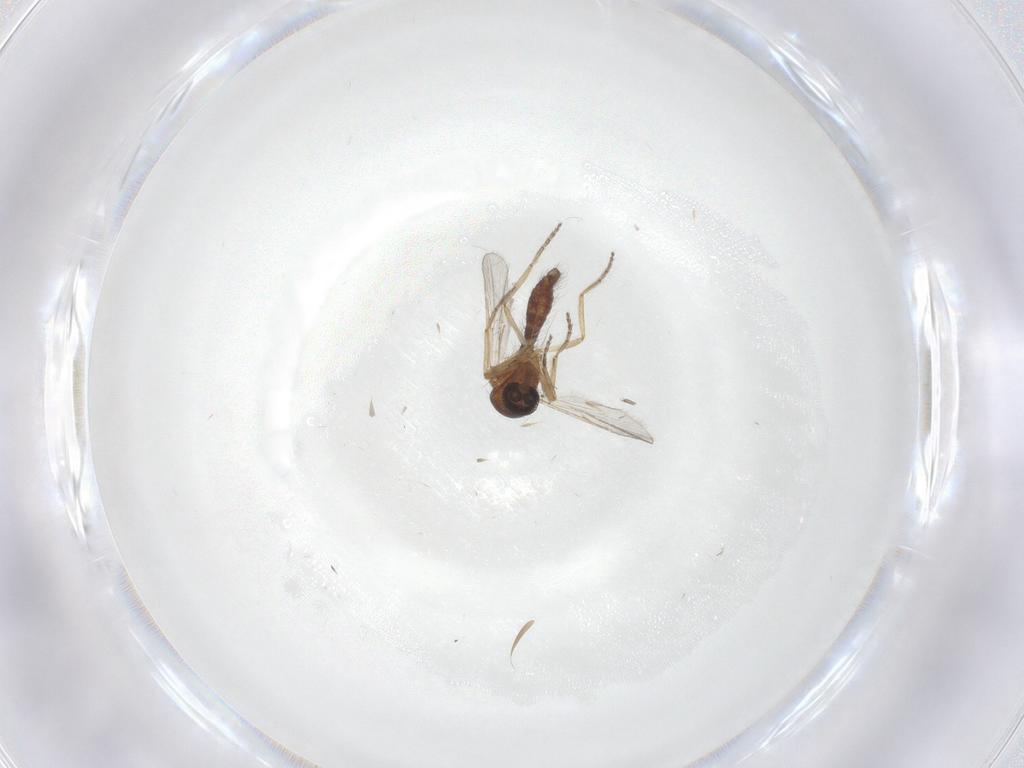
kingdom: Animalia
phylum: Arthropoda
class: Insecta
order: Diptera
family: Ceratopogonidae
